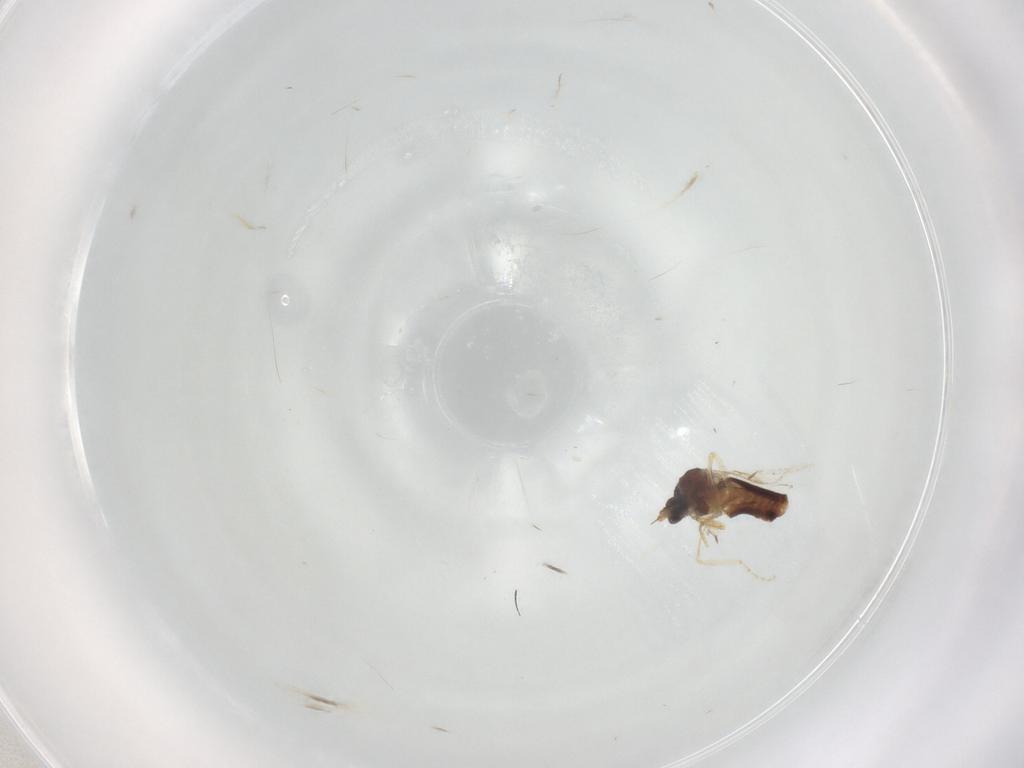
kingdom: Animalia
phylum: Arthropoda
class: Insecta
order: Diptera
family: Ceratopogonidae
